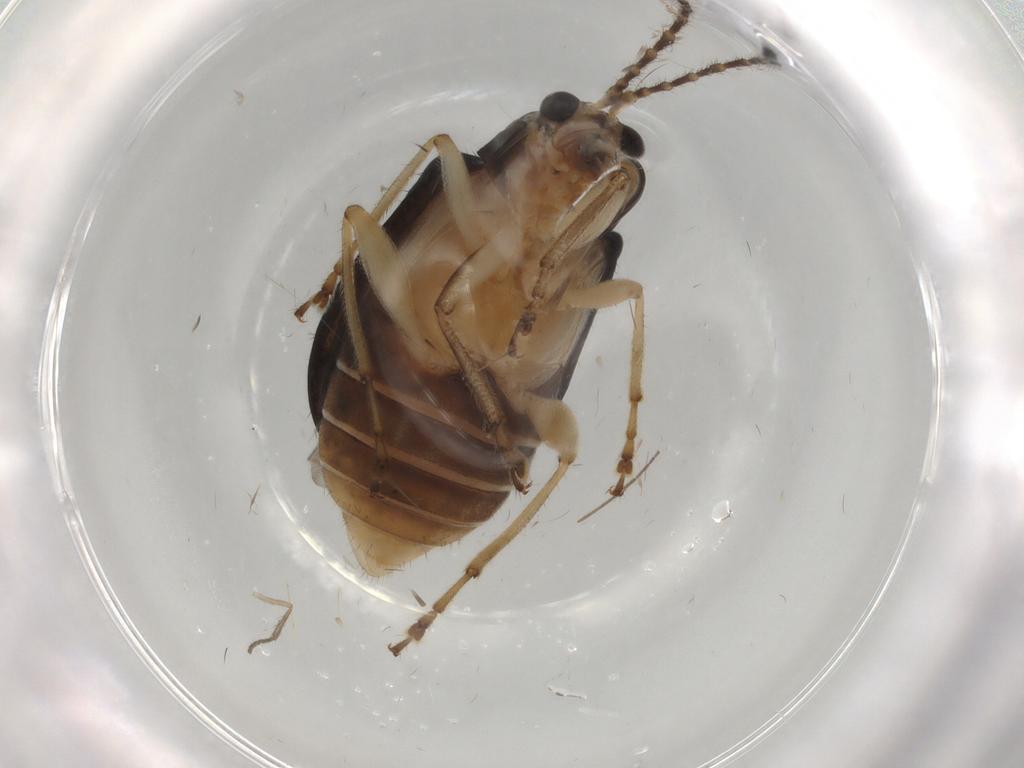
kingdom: Animalia
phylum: Arthropoda
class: Insecta
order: Coleoptera
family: Chrysomelidae
